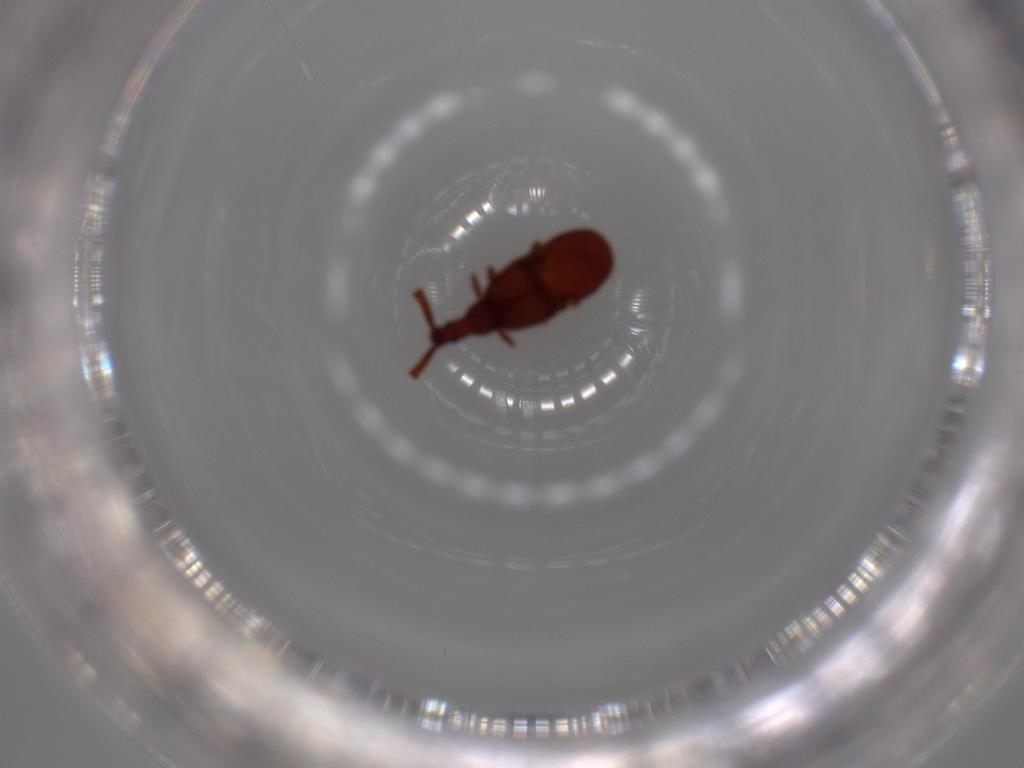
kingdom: Animalia
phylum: Arthropoda
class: Insecta
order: Coleoptera
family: Staphylinidae
